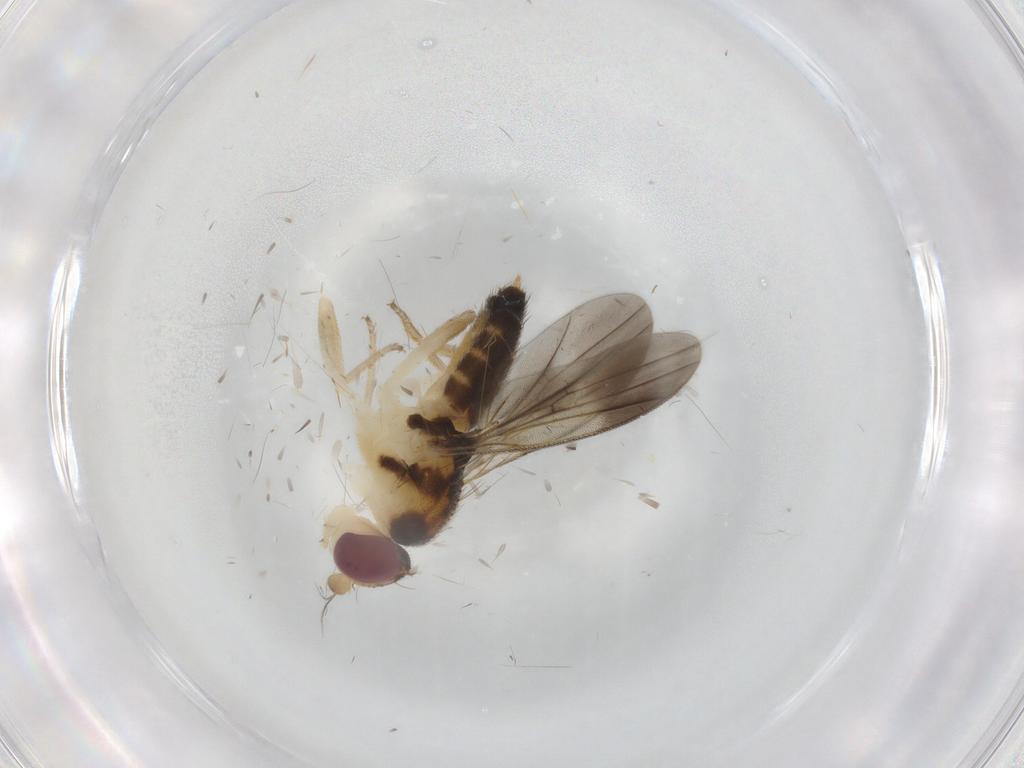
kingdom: Animalia
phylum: Arthropoda
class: Insecta
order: Diptera
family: Clusiidae
